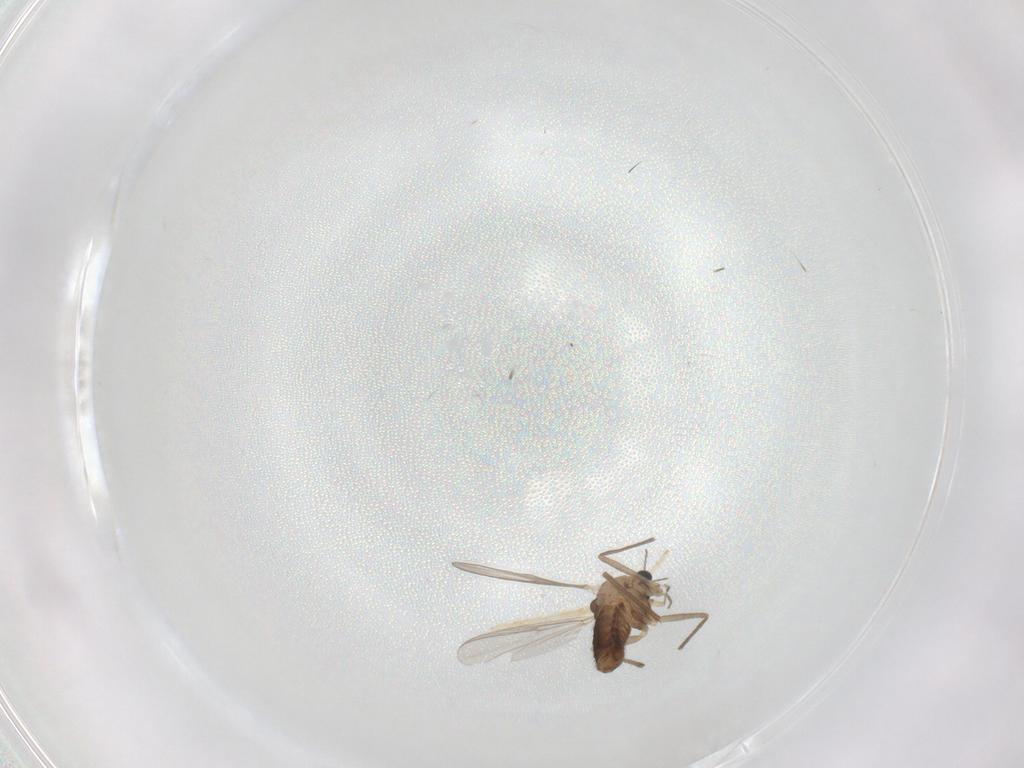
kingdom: Animalia
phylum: Arthropoda
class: Insecta
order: Diptera
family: Chironomidae
